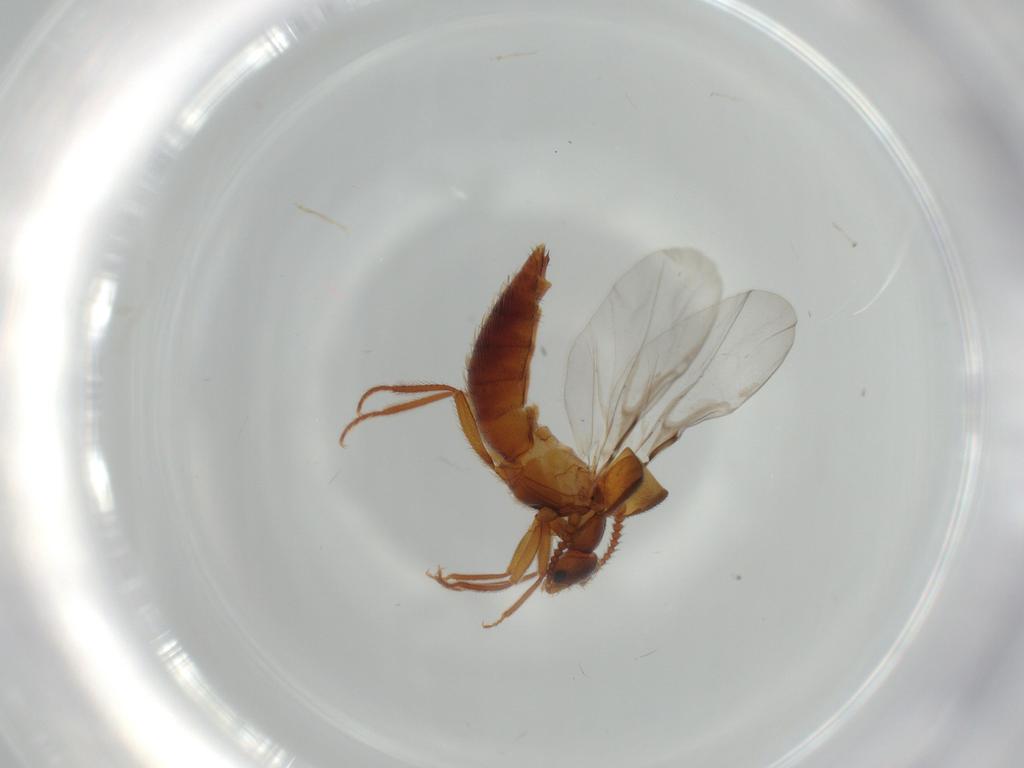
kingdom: Animalia
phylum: Arthropoda
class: Insecta
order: Coleoptera
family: Staphylinidae
